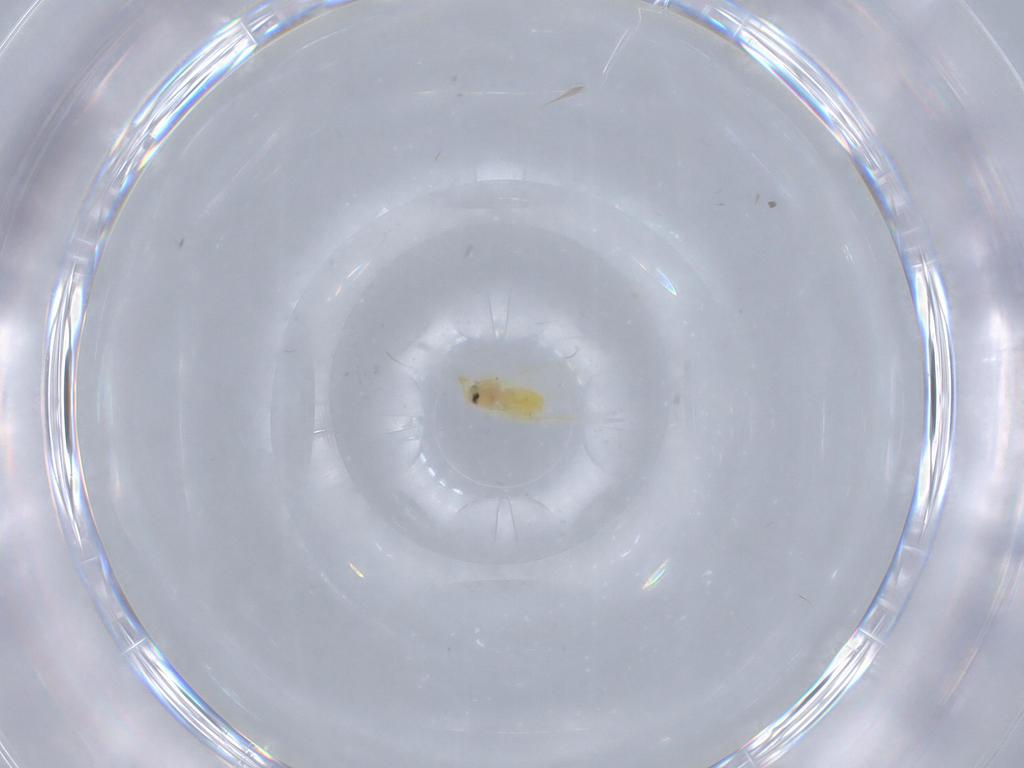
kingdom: Animalia
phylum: Arthropoda
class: Insecta
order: Hemiptera
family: Aleyrodidae
